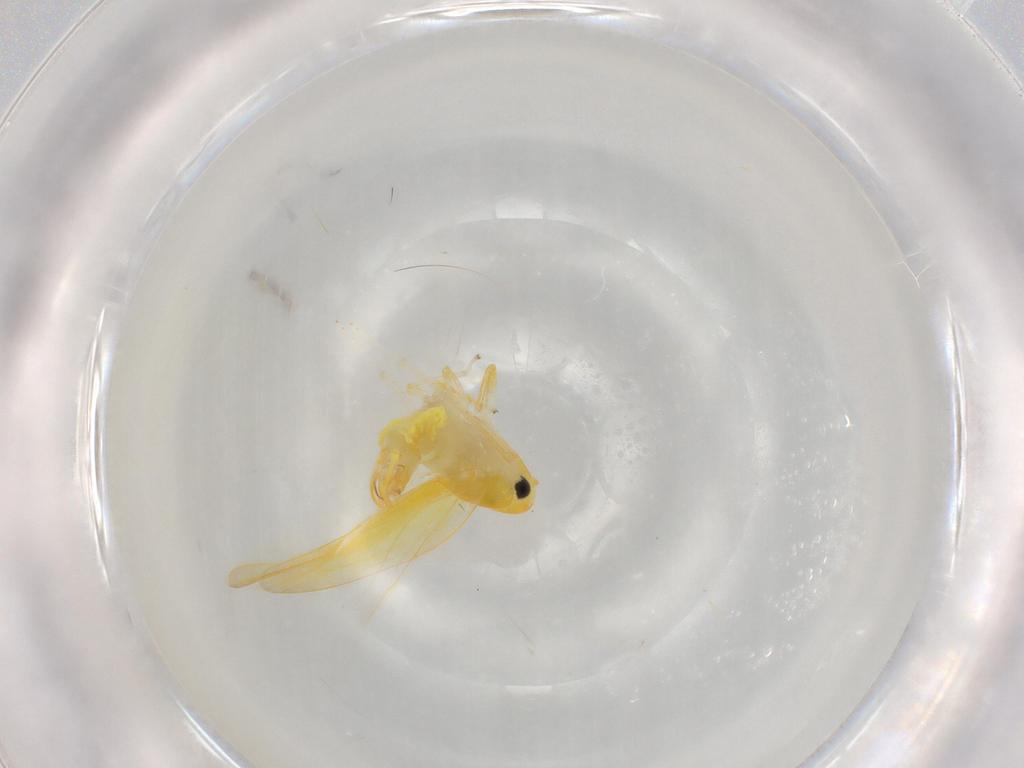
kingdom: Animalia
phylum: Arthropoda
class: Insecta
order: Hemiptera
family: Cicadellidae
